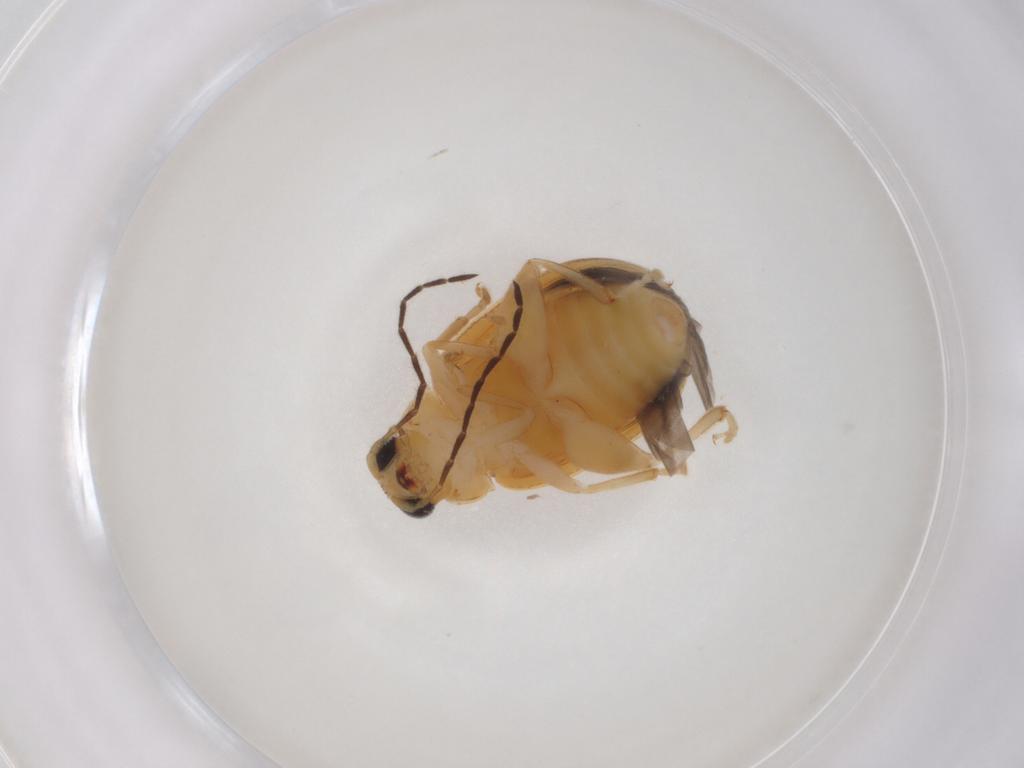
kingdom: Animalia
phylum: Arthropoda
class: Insecta
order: Coleoptera
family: Chrysomelidae
